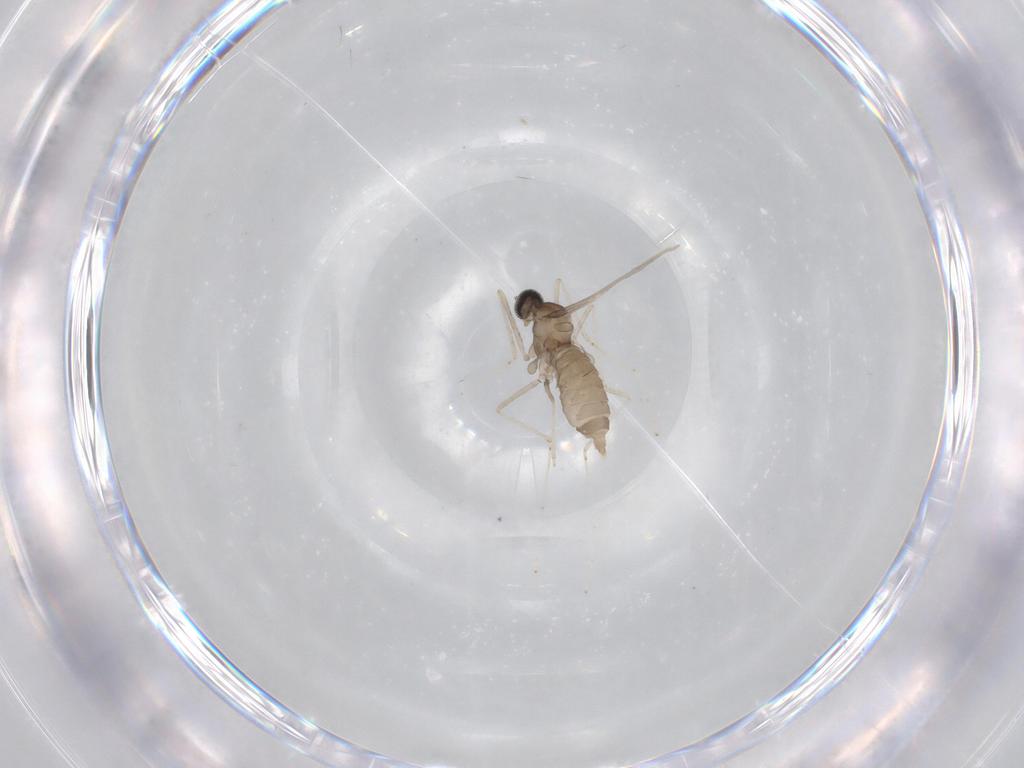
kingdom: Animalia
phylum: Arthropoda
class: Insecta
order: Diptera
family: Cecidomyiidae
